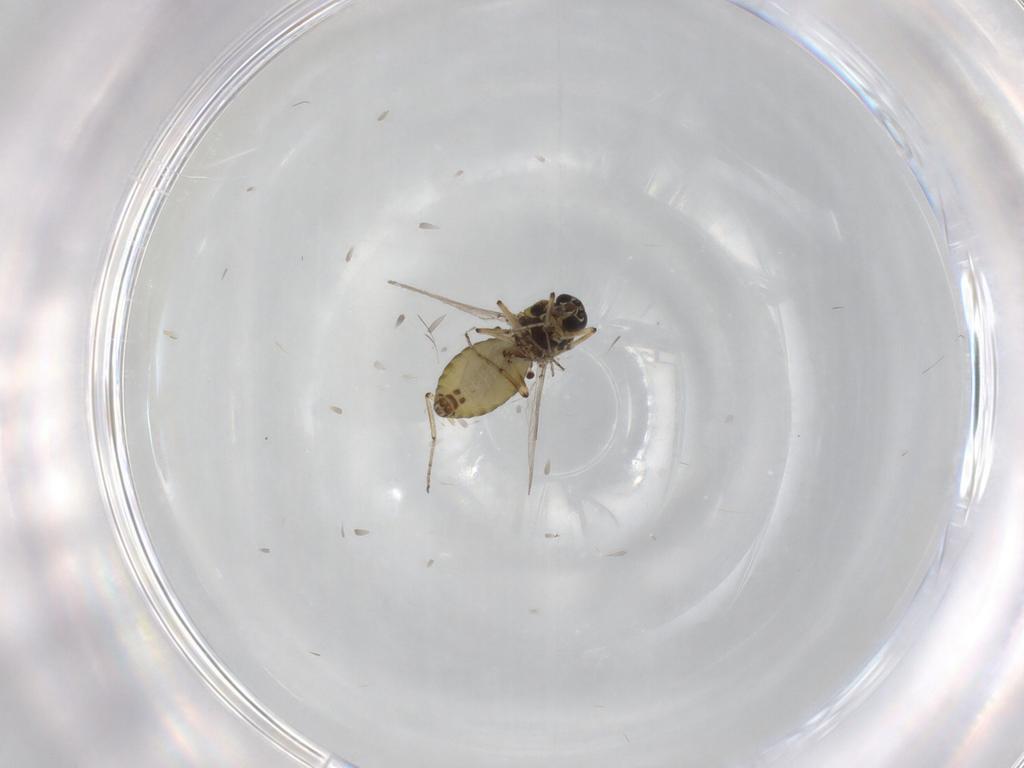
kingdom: Animalia
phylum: Arthropoda
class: Insecta
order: Diptera
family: Ceratopogonidae
